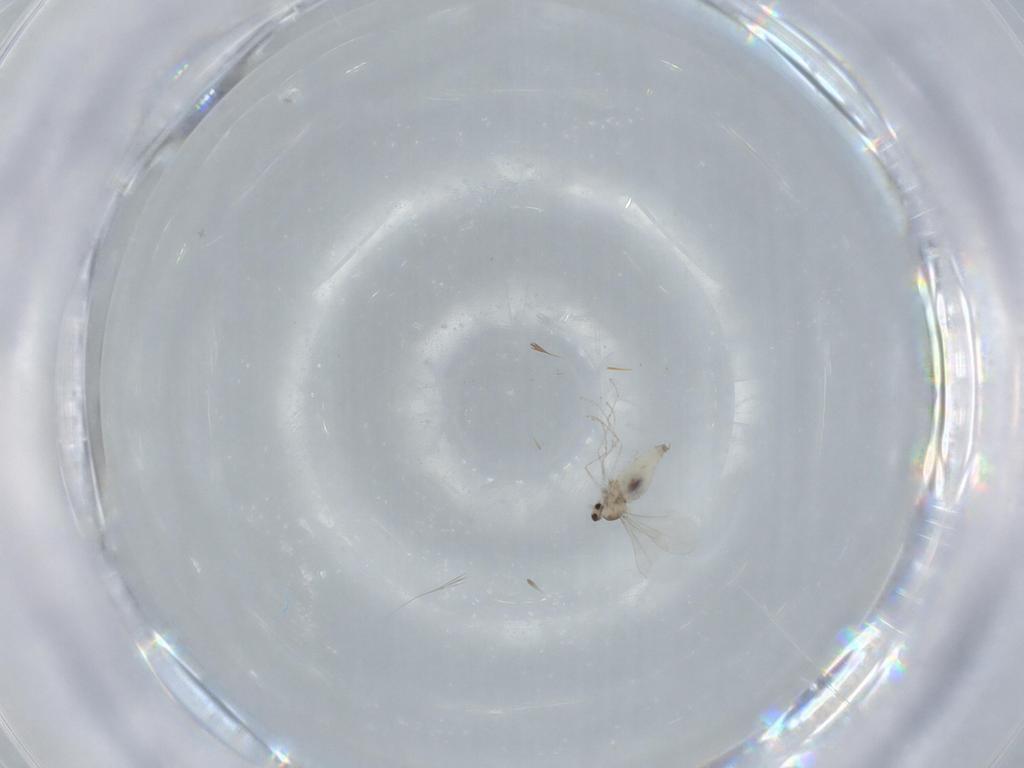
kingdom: Animalia
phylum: Arthropoda
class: Insecta
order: Diptera
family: Cecidomyiidae
